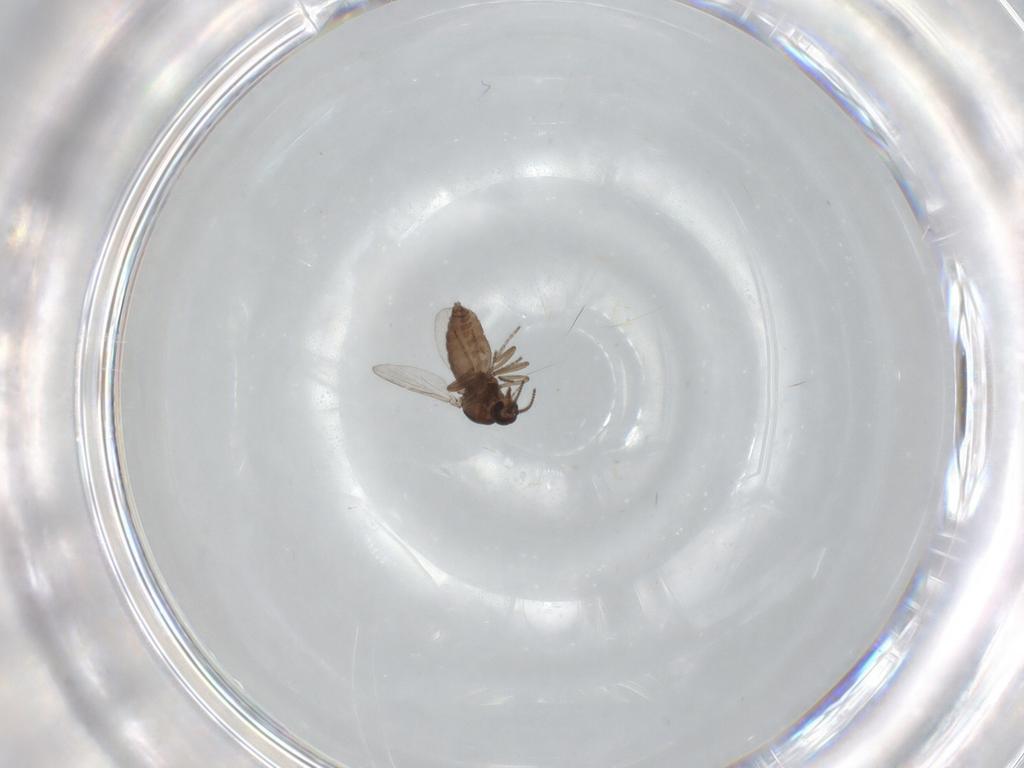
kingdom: Animalia
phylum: Arthropoda
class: Insecta
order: Diptera
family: Ceratopogonidae
